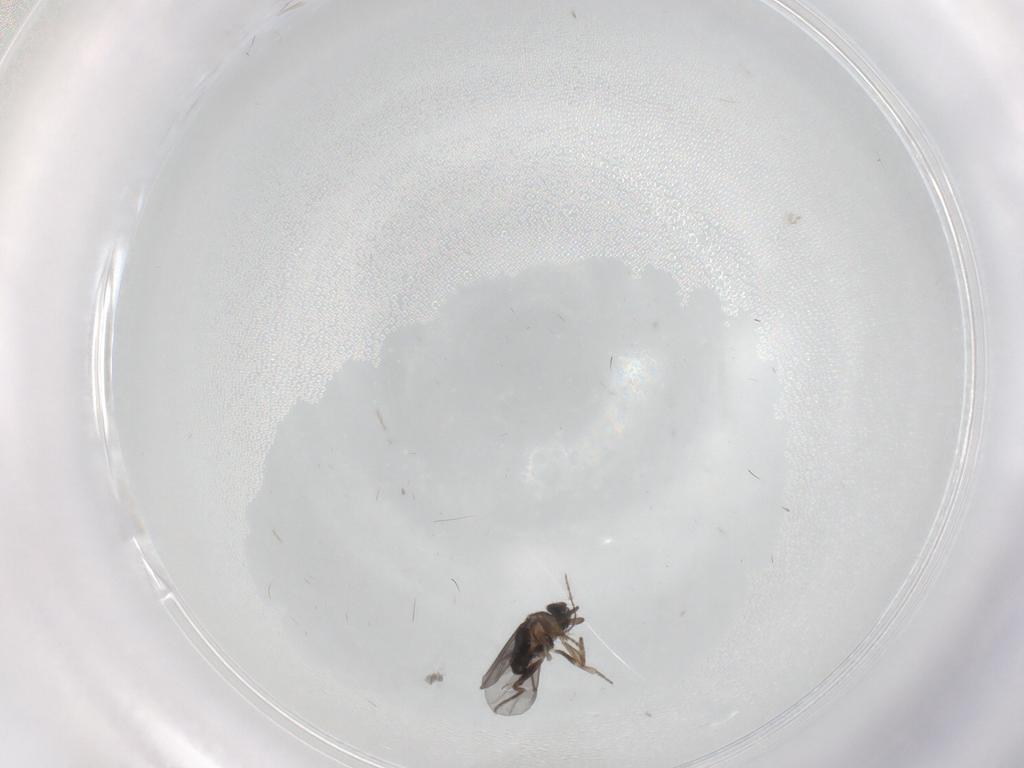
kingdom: Animalia
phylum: Arthropoda
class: Insecta
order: Diptera
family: Ceratopogonidae
